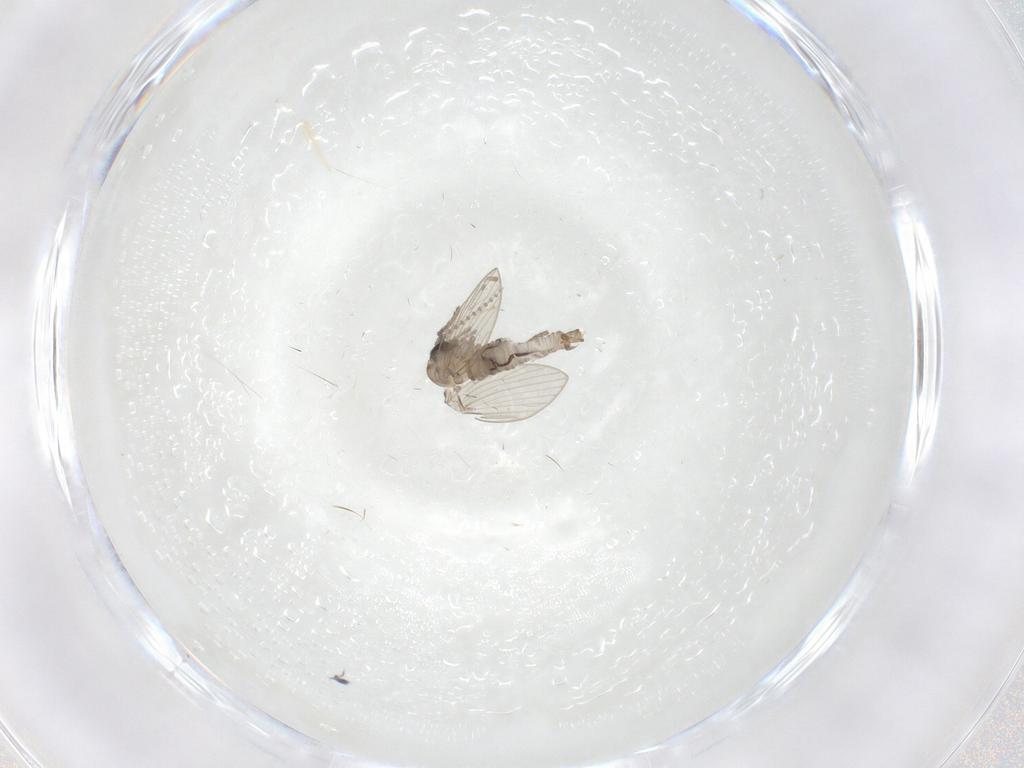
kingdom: Animalia
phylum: Arthropoda
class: Insecta
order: Diptera
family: Psychodidae
